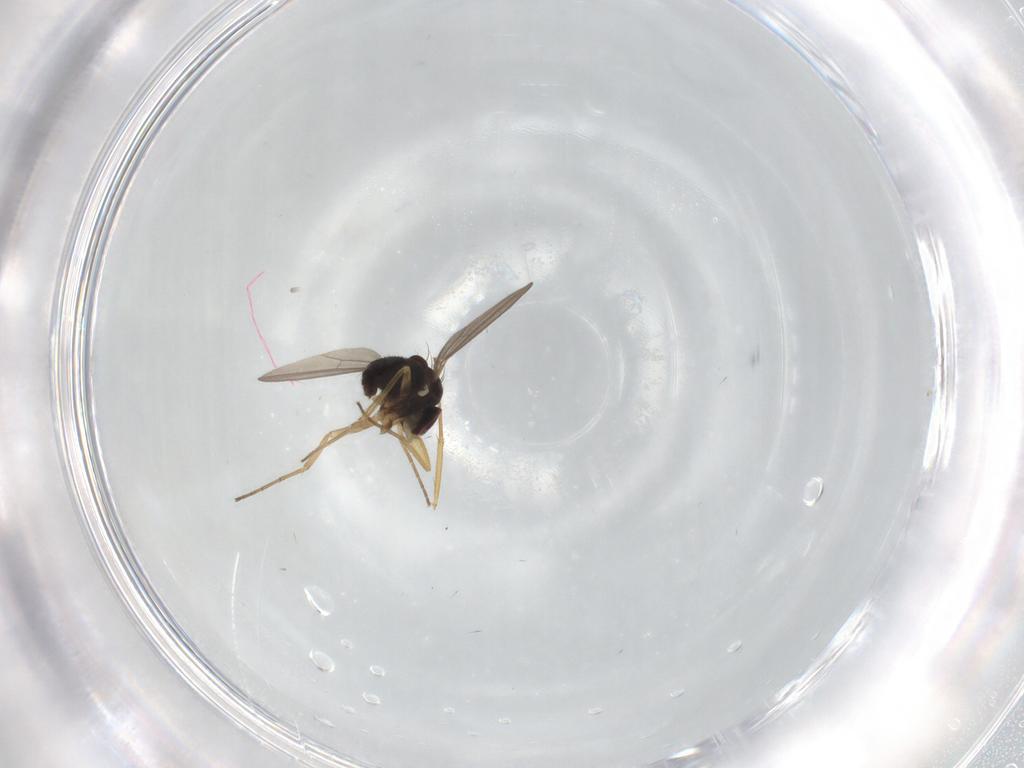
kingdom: Animalia
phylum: Arthropoda
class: Insecta
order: Diptera
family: Dolichopodidae
